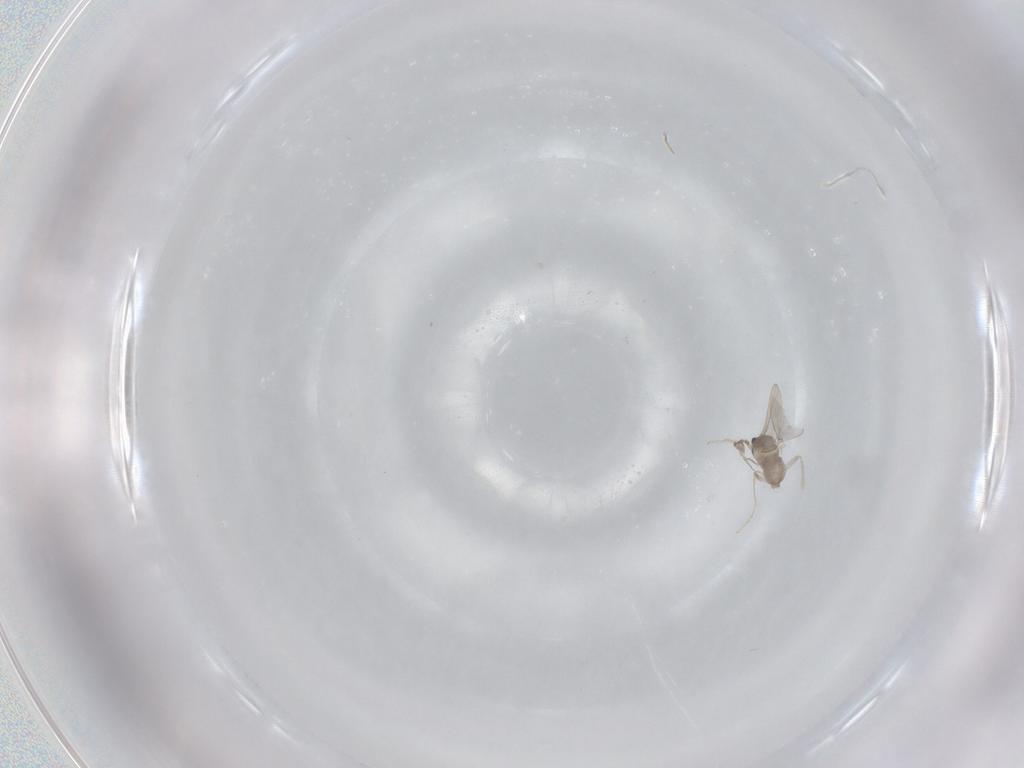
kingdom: Animalia
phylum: Arthropoda
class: Insecta
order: Diptera
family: Cecidomyiidae
